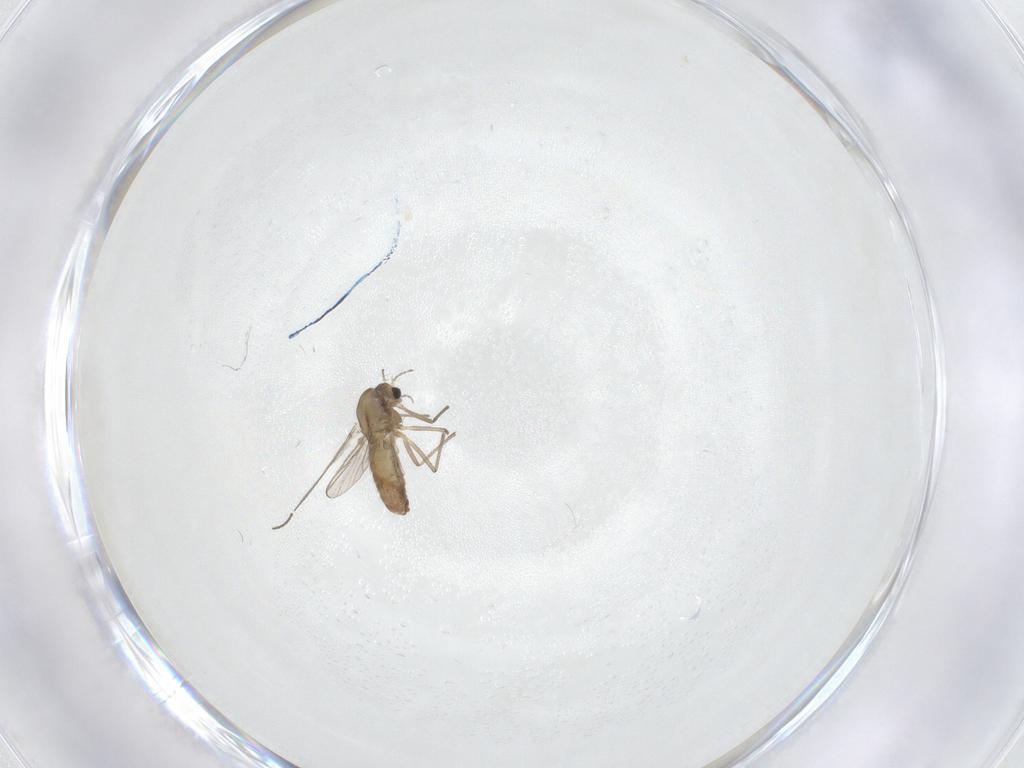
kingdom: Animalia
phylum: Arthropoda
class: Insecta
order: Diptera
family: Chironomidae
